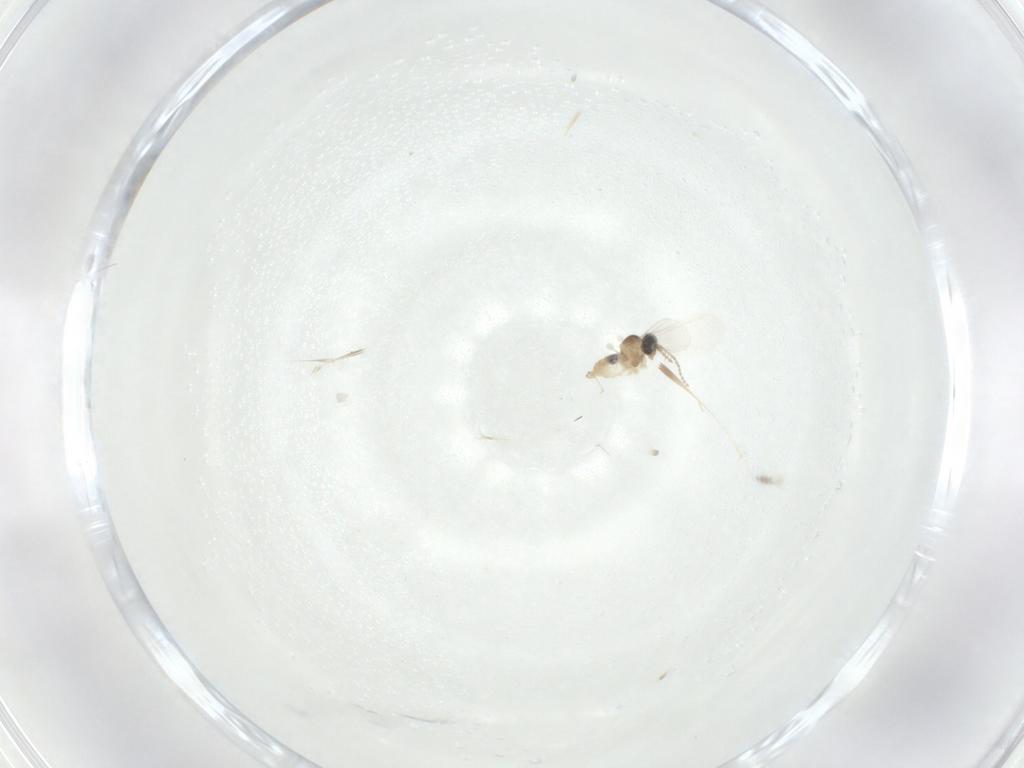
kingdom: Animalia
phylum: Arthropoda
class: Insecta
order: Diptera
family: Cecidomyiidae
